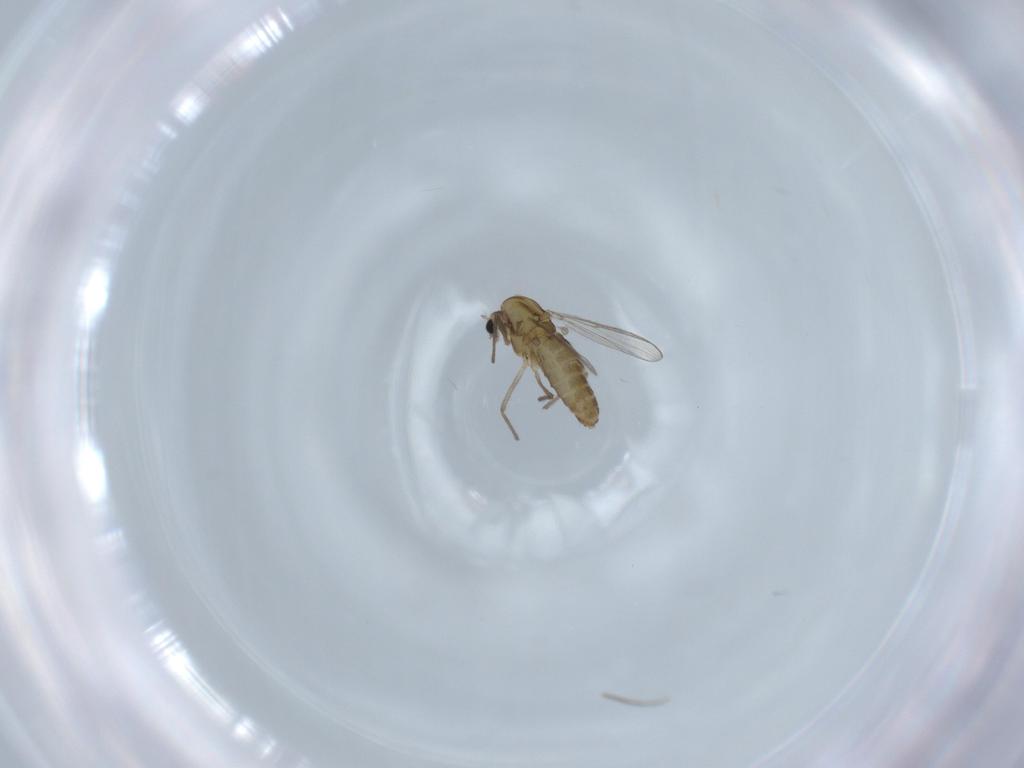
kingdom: Animalia
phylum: Arthropoda
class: Insecta
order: Diptera
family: Chironomidae
